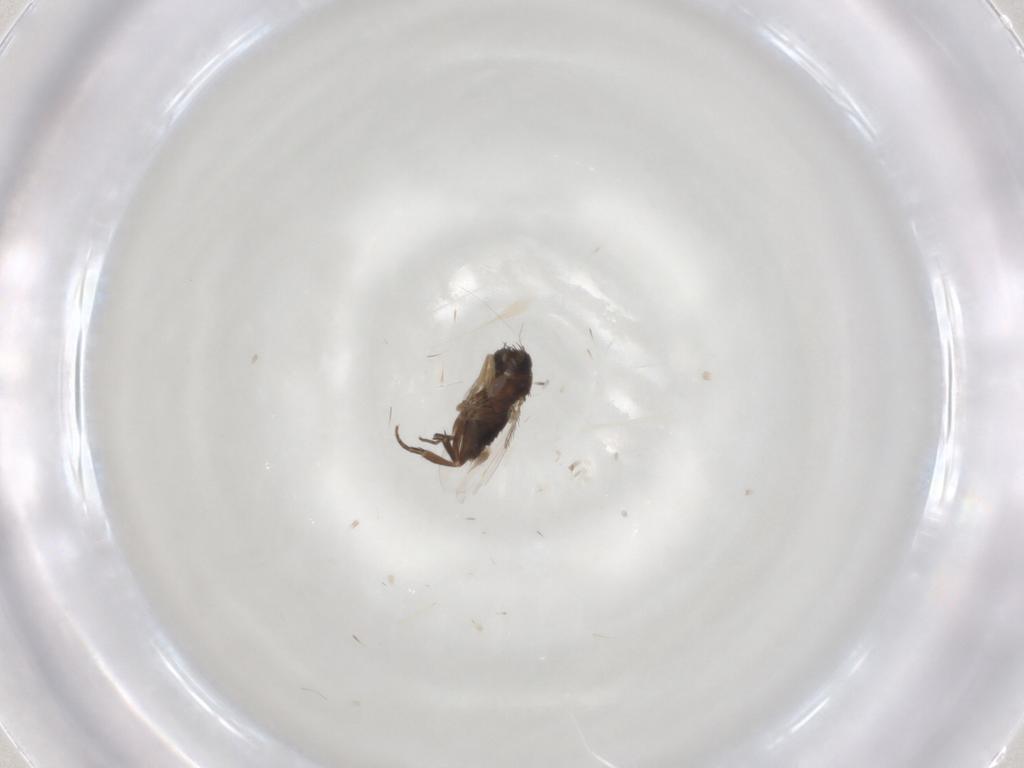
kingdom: Animalia
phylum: Arthropoda
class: Insecta
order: Diptera
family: Phoridae
